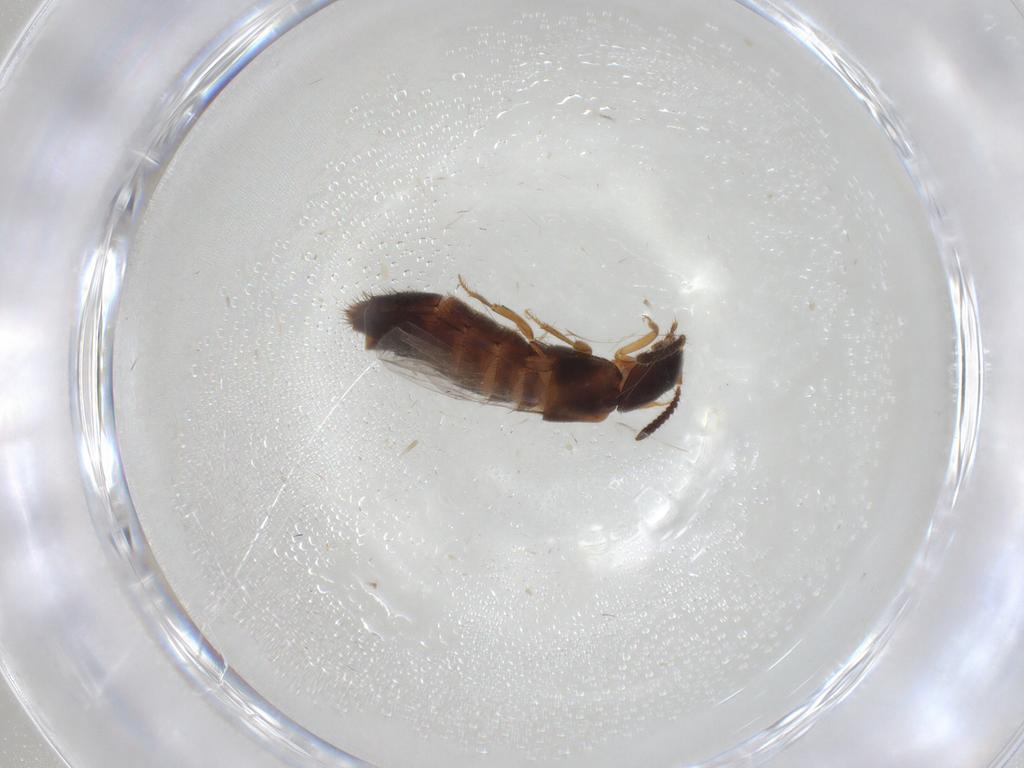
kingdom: Animalia
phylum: Arthropoda
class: Insecta
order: Coleoptera
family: Staphylinidae
